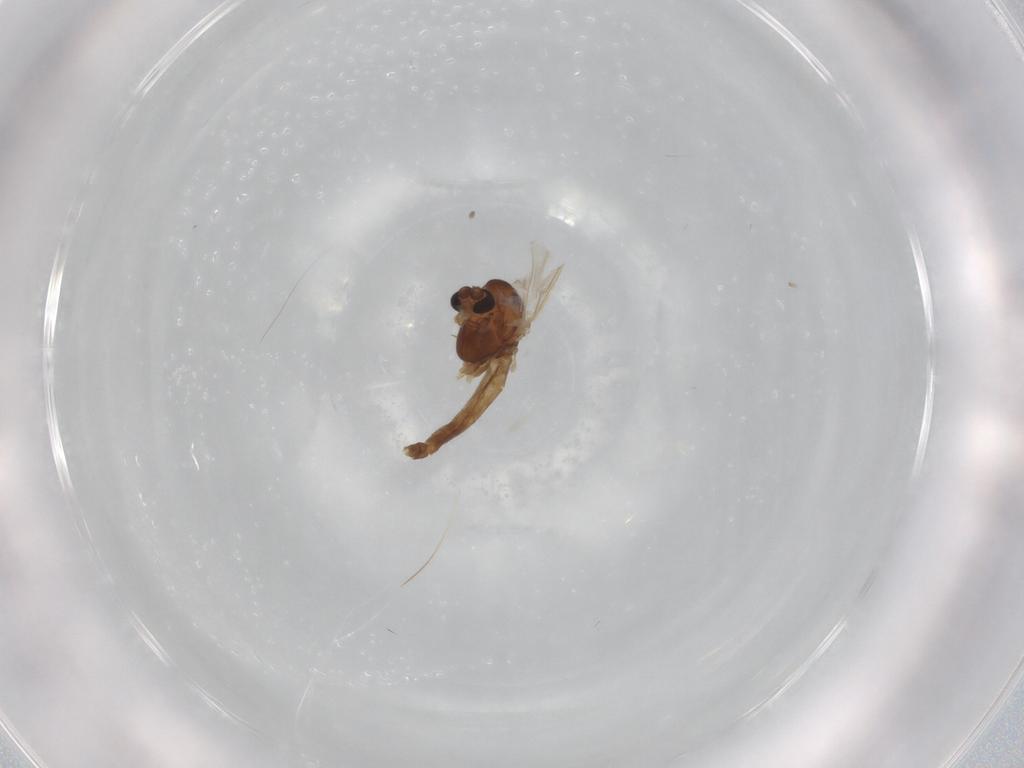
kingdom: Animalia
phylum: Arthropoda
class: Insecta
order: Diptera
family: Chironomidae
